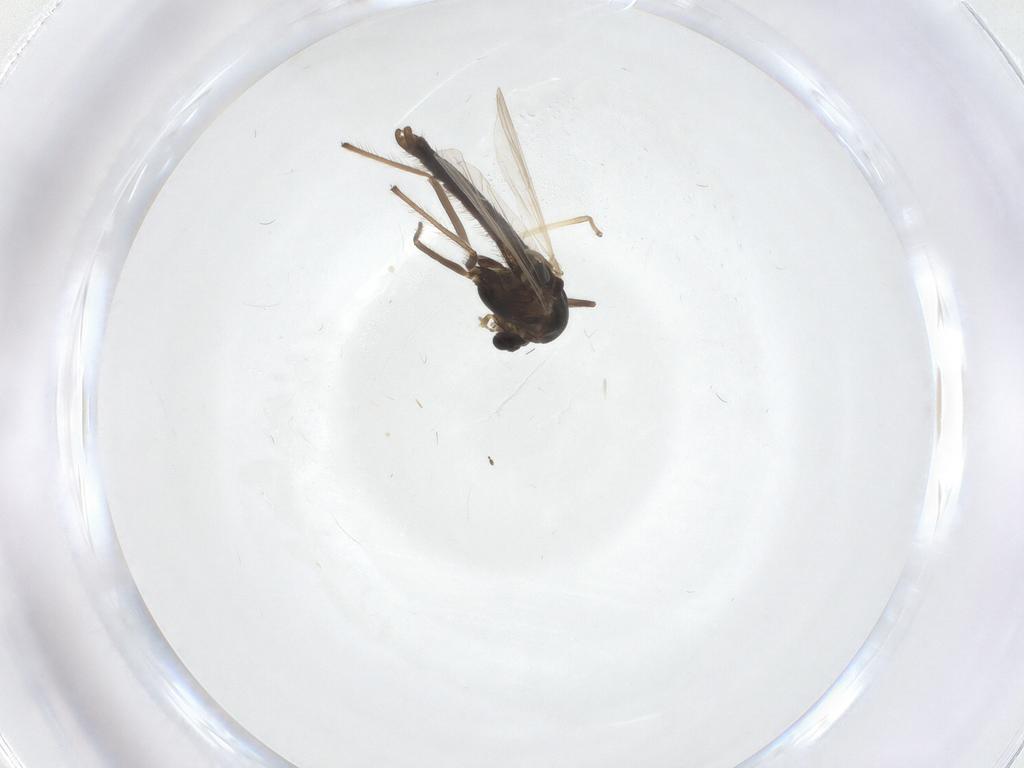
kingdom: Animalia
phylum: Arthropoda
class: Insecta
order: Diptera
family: Chironomidae
